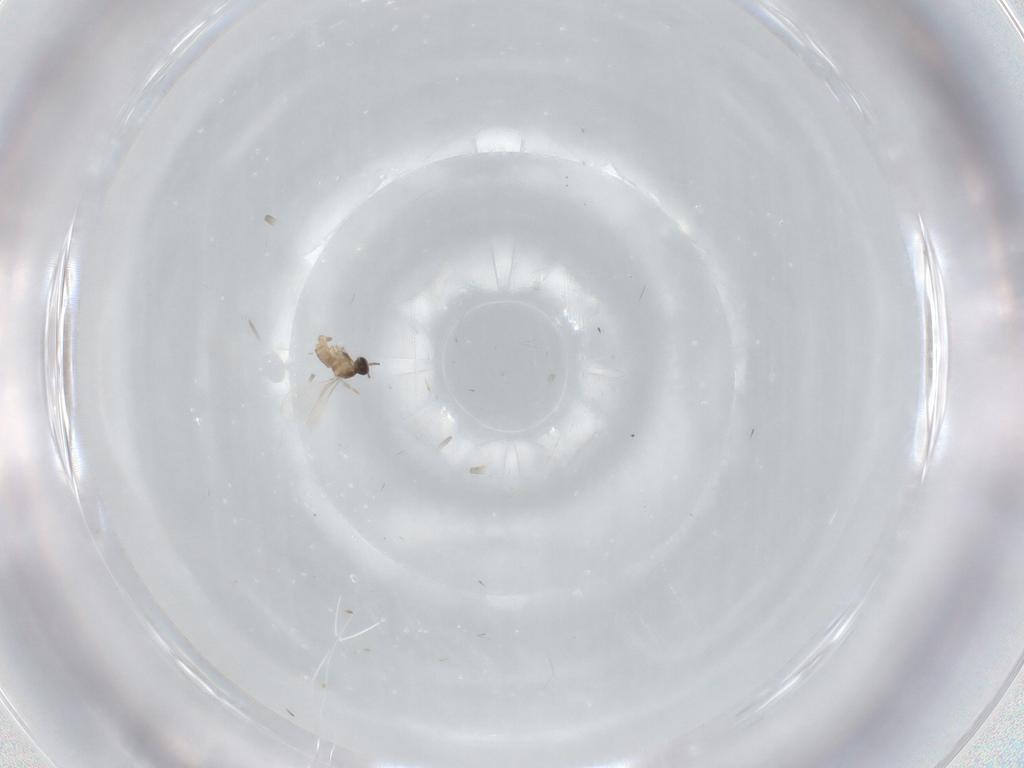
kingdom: Animalia
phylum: Arthropoda
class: Insecta
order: Diptera
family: Cecidomyiidae
